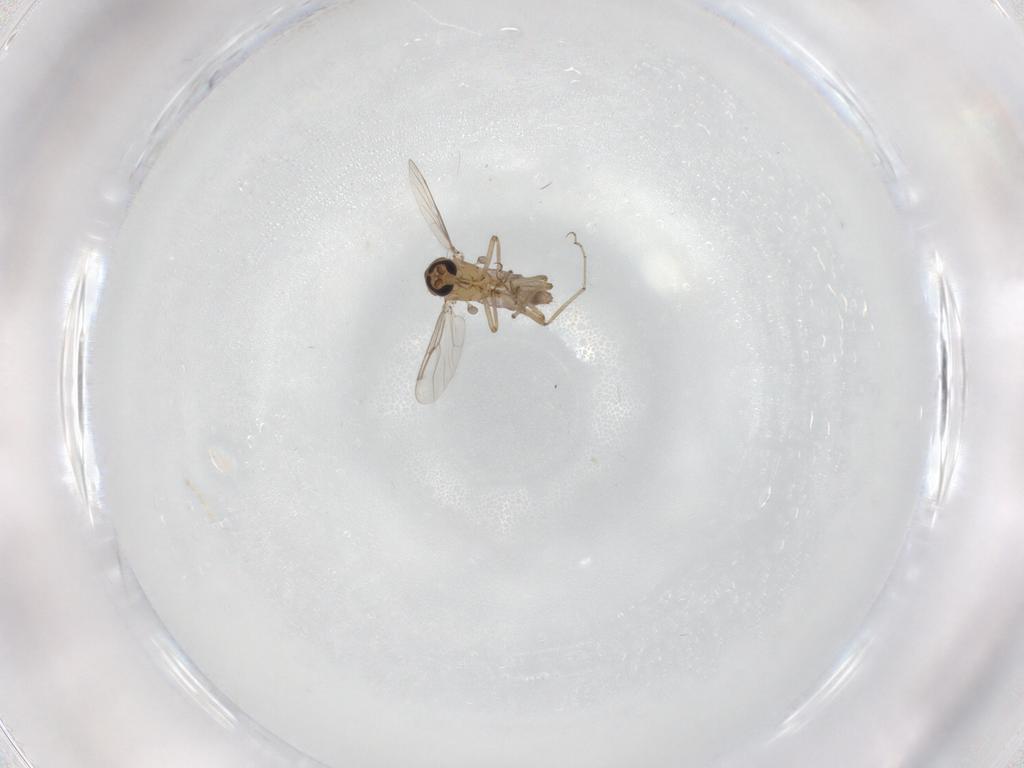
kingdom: Animalia
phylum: Arthropoda
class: Insecta
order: Diptera
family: Ceratopogonidae
